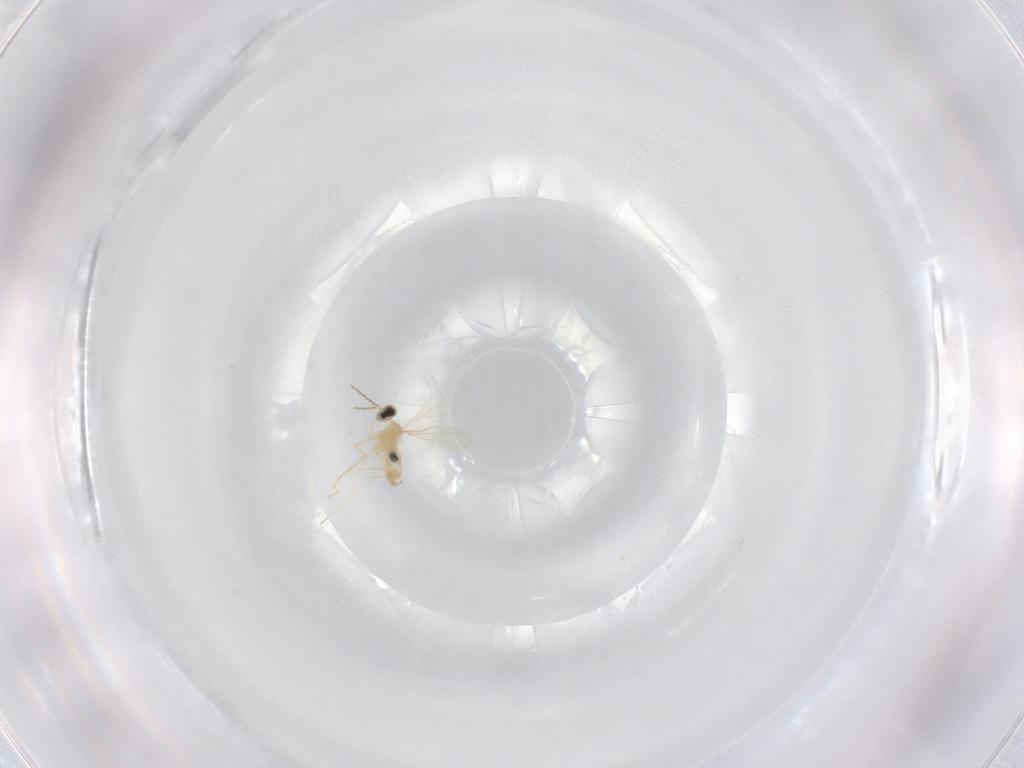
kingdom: Animalia
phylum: Arthropoda
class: Insecta
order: Diptera
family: Cecidomyiidae
